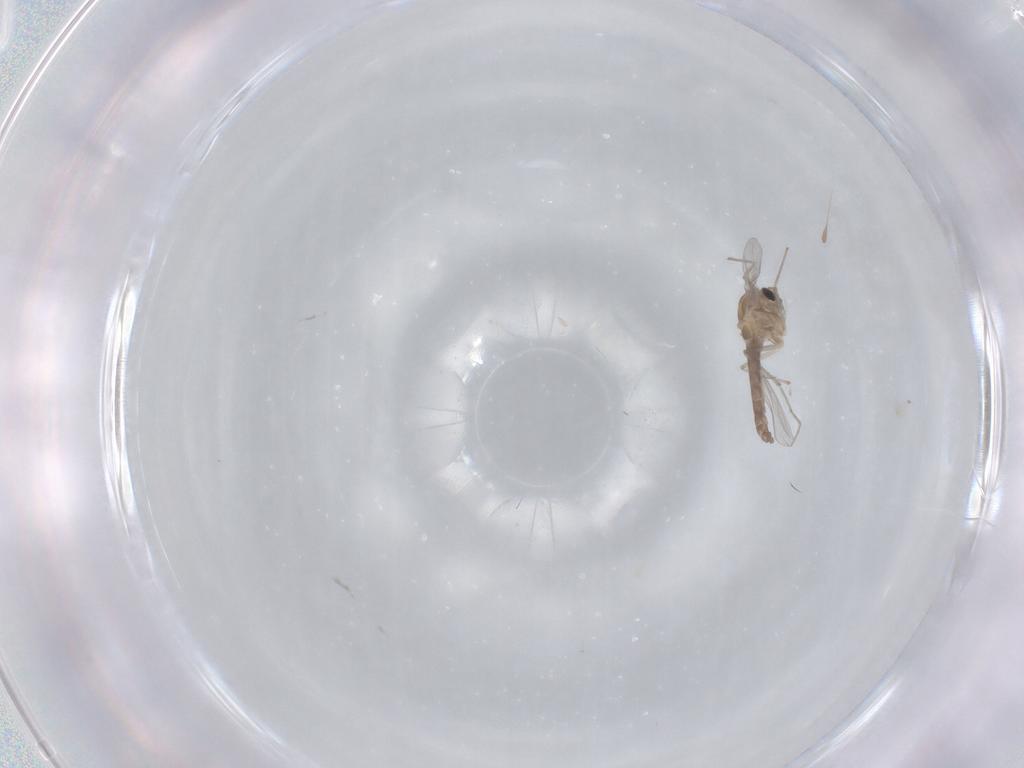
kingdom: Animalia
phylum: Arthropoda
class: Insecta
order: Diptera
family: Chironomidae
